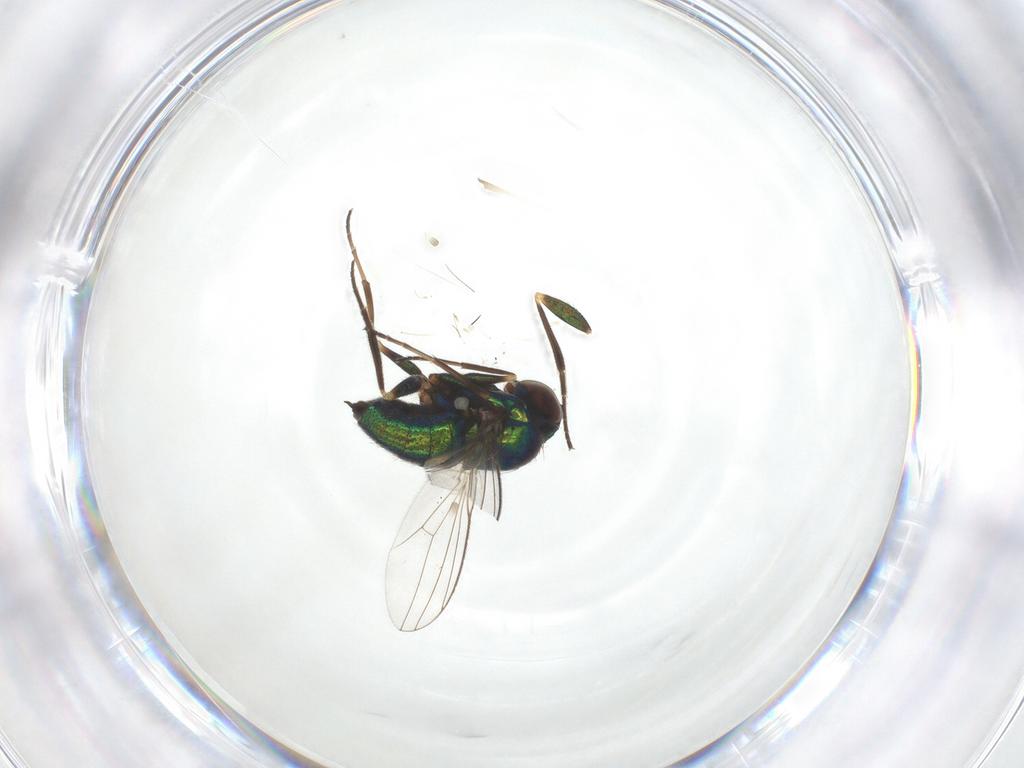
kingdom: Animalia
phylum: Arthropoda
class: Insecta
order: Diptera
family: Dolichopodidae
